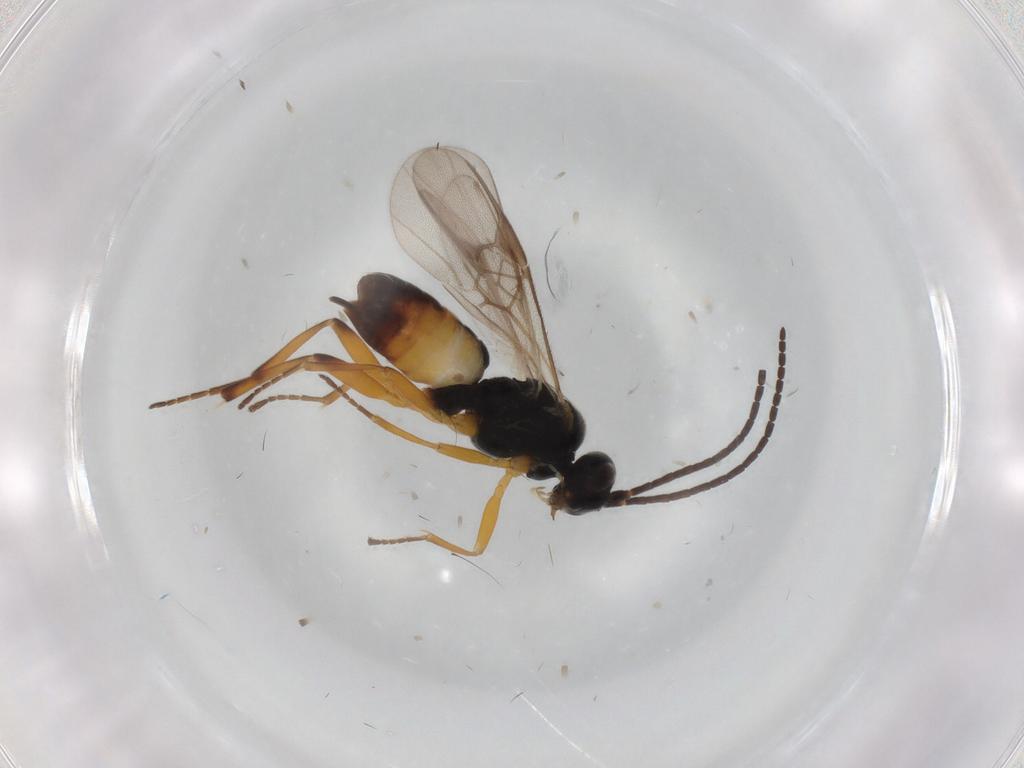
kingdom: Animalia
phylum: Arthropoda
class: Insecta
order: Hymenoptera
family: Braconidae
